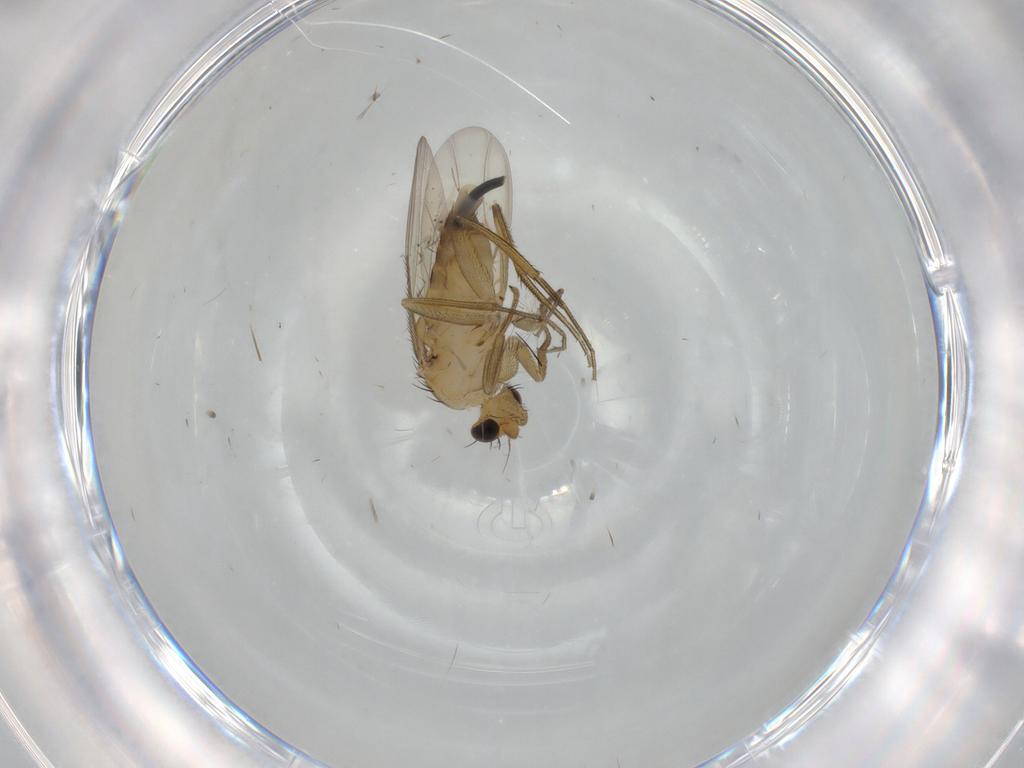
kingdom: Animalia
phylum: Arthropoda
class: Insecta
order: Diptera
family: Phoridae
